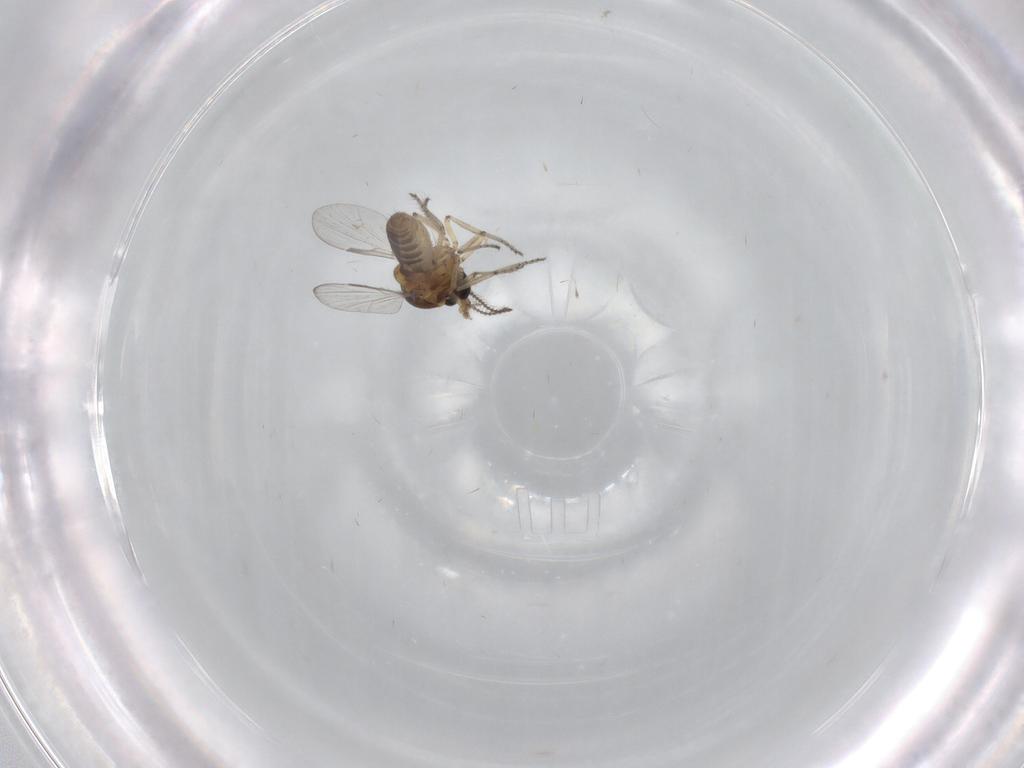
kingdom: Animalia
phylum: Arthropoda
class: Insecta
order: Diptera
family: Ceratopogonidae
